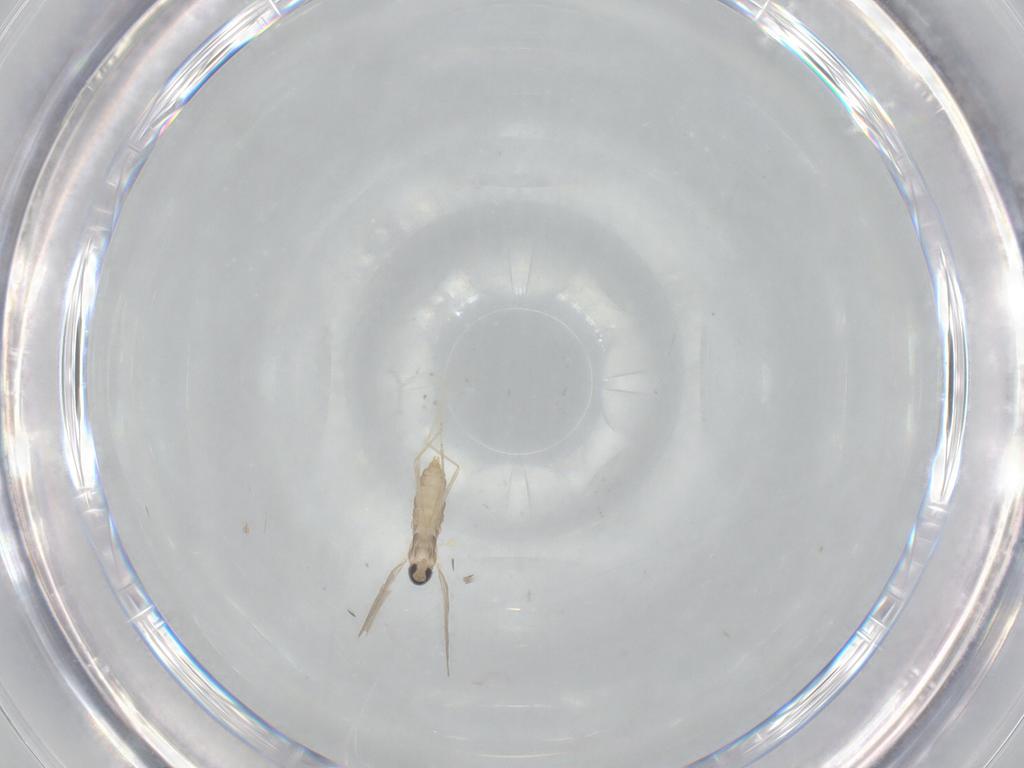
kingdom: Animalia
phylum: Arthropoda
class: Insecta
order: Diptera
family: Cecidomyiidae
